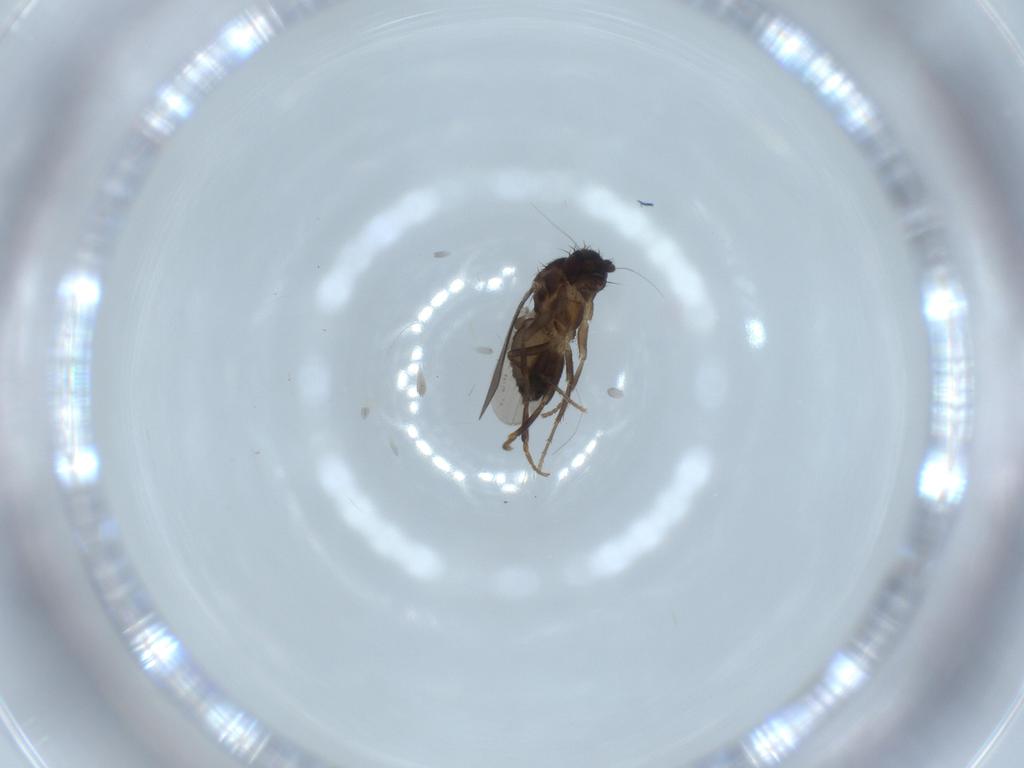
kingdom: Animalia
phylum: Arthropoda
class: Insecta
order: Diptera
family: Sphaeroceridae
